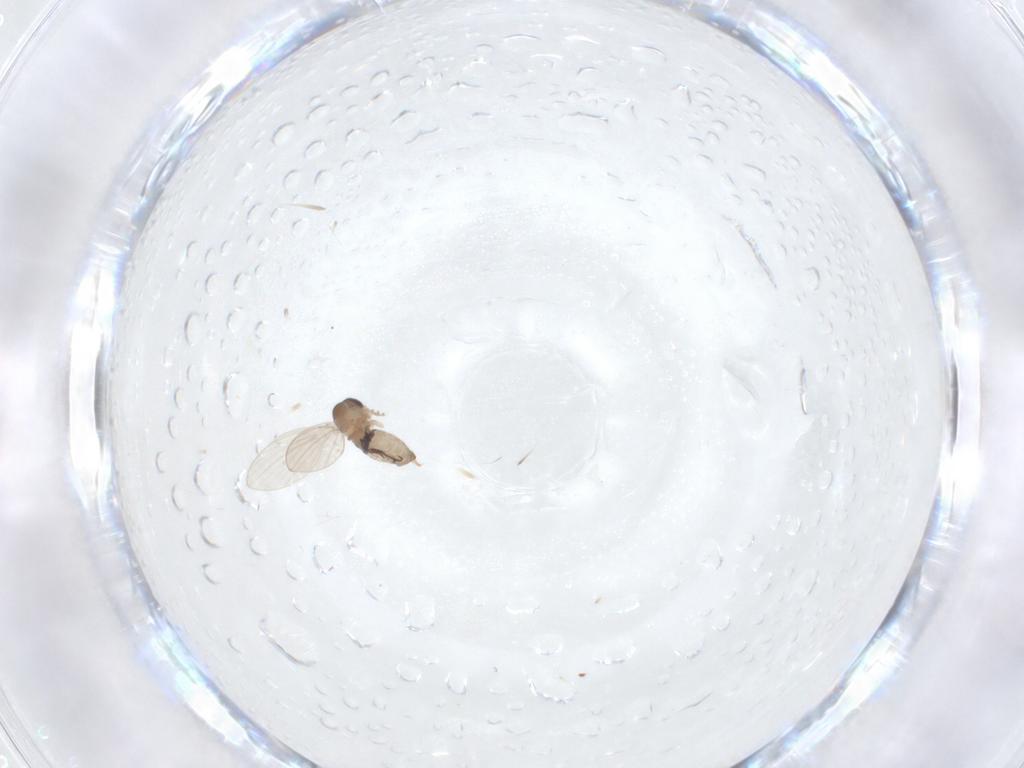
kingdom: Animalia
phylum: Arthropoda
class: Insecta
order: Diptera
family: Psychodidae
